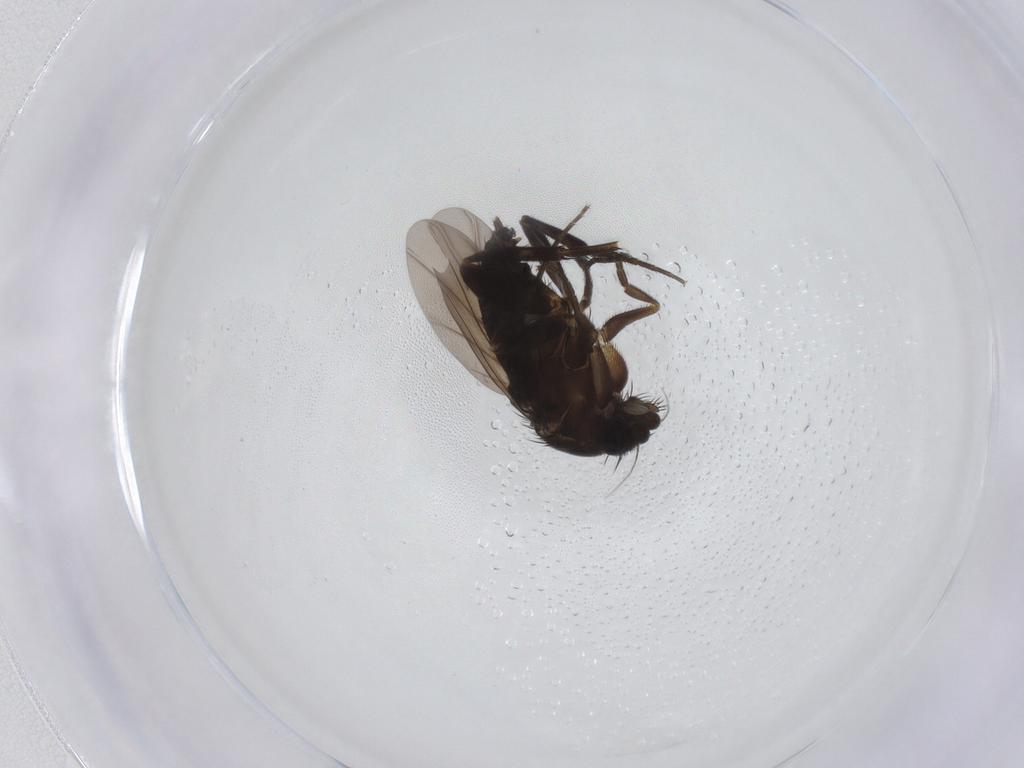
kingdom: Animalia
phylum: Arthropoda
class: Insecta
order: Diptera
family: Phoridae
